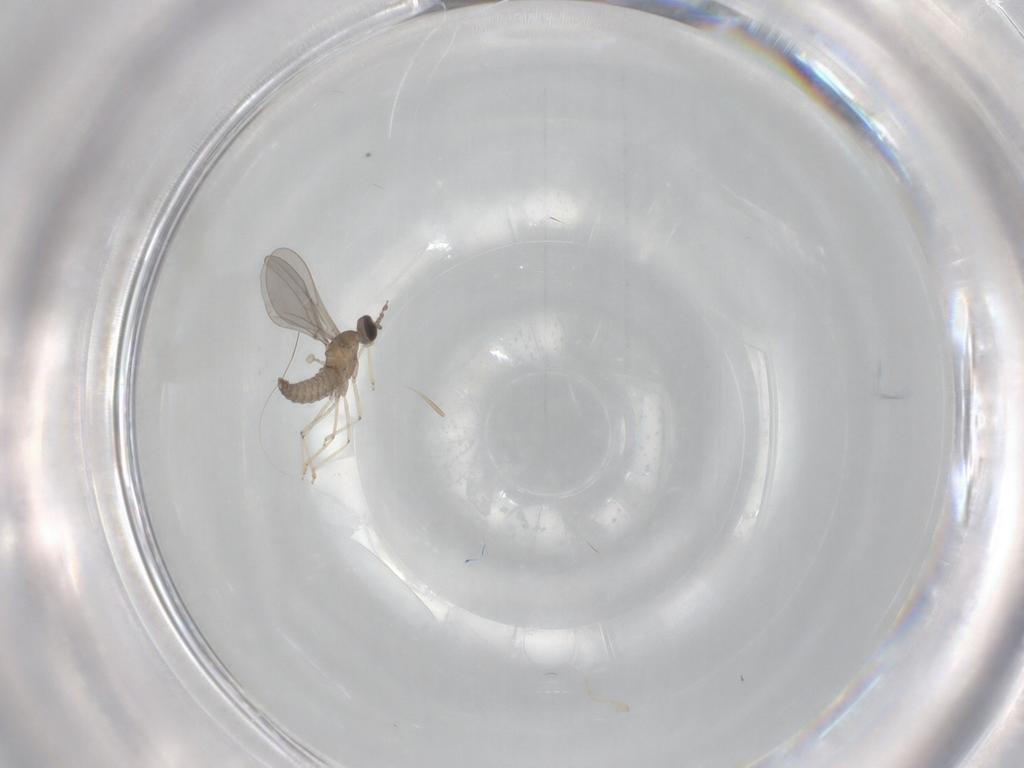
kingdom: Animalia
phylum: Arthropoda
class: Insecta
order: Diptera
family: Cecidomyiidae
